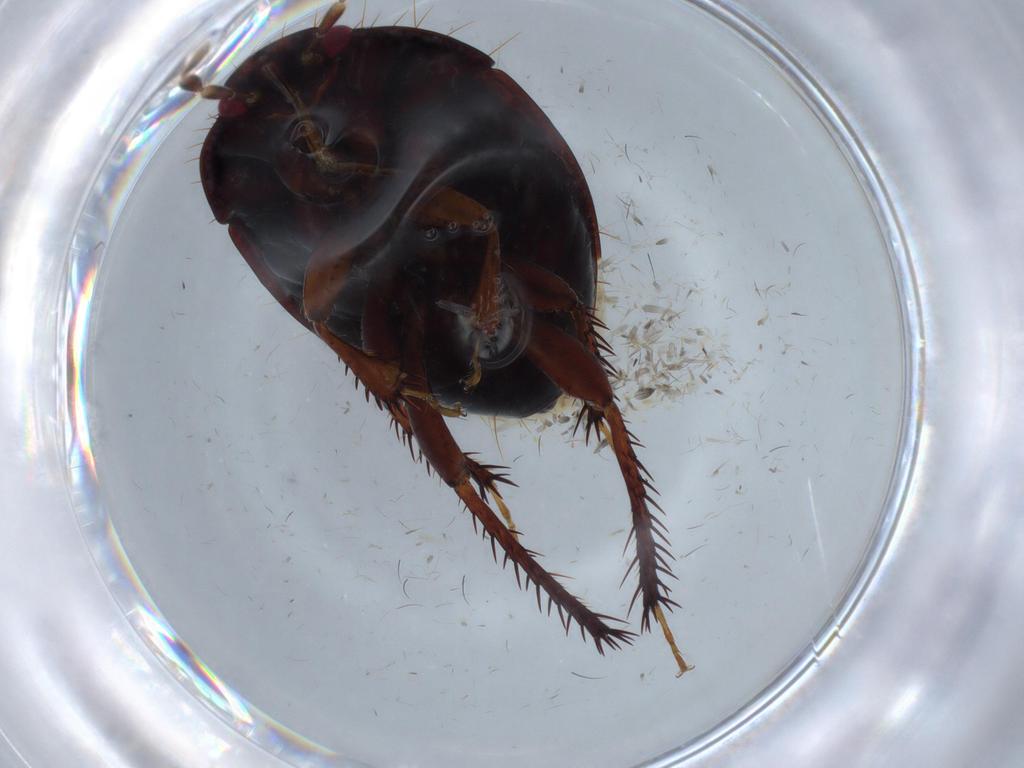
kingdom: Animalia
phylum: Arthropoda
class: Insecta
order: Hemiptera
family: Cydnidae
